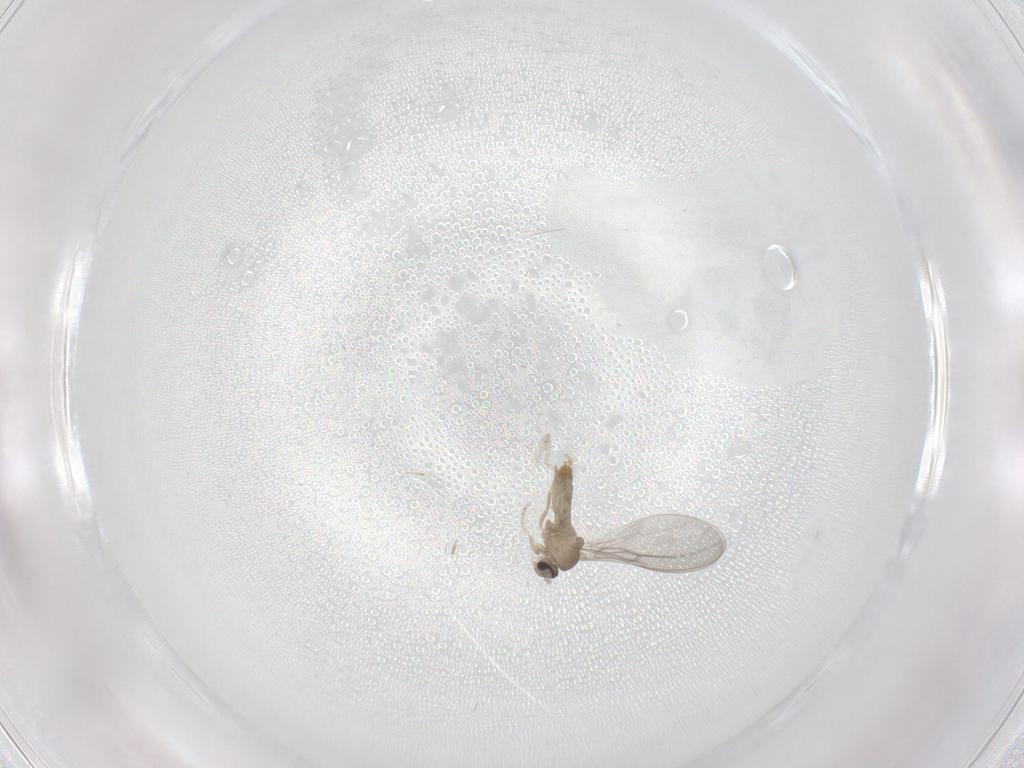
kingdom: Animalia
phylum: Arthropoda
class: Insecta
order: Diptera
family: Cecidomyiidae
